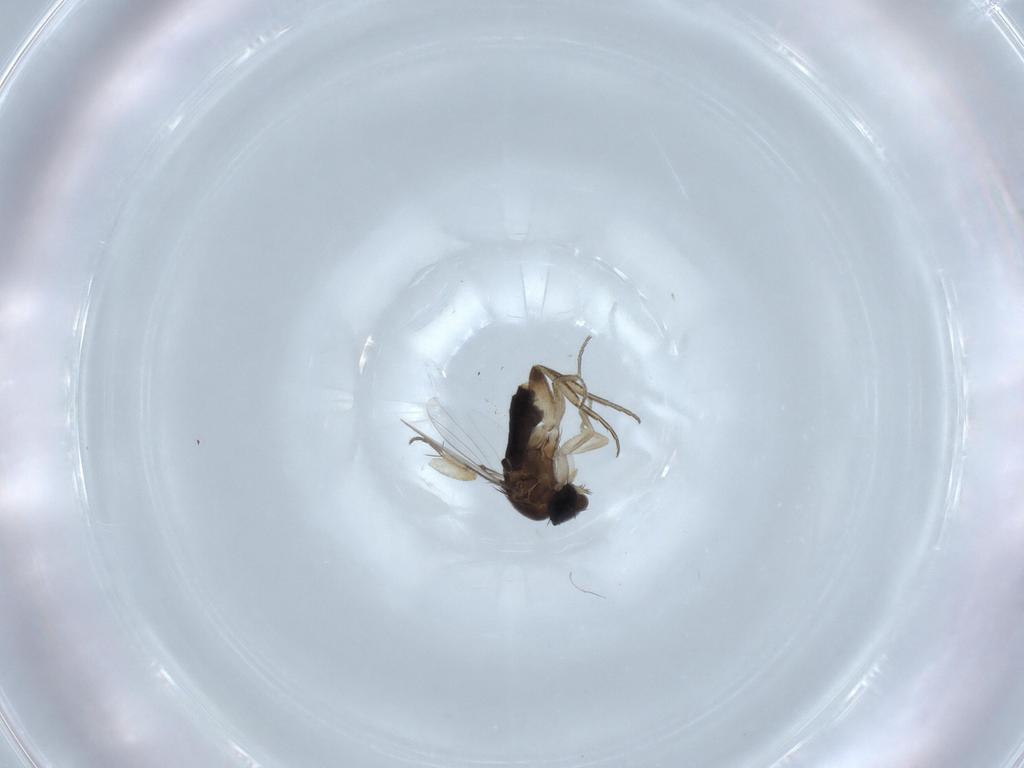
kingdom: Animalia
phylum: Arthropoda
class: Insecta
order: Diptera
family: Phoridae
